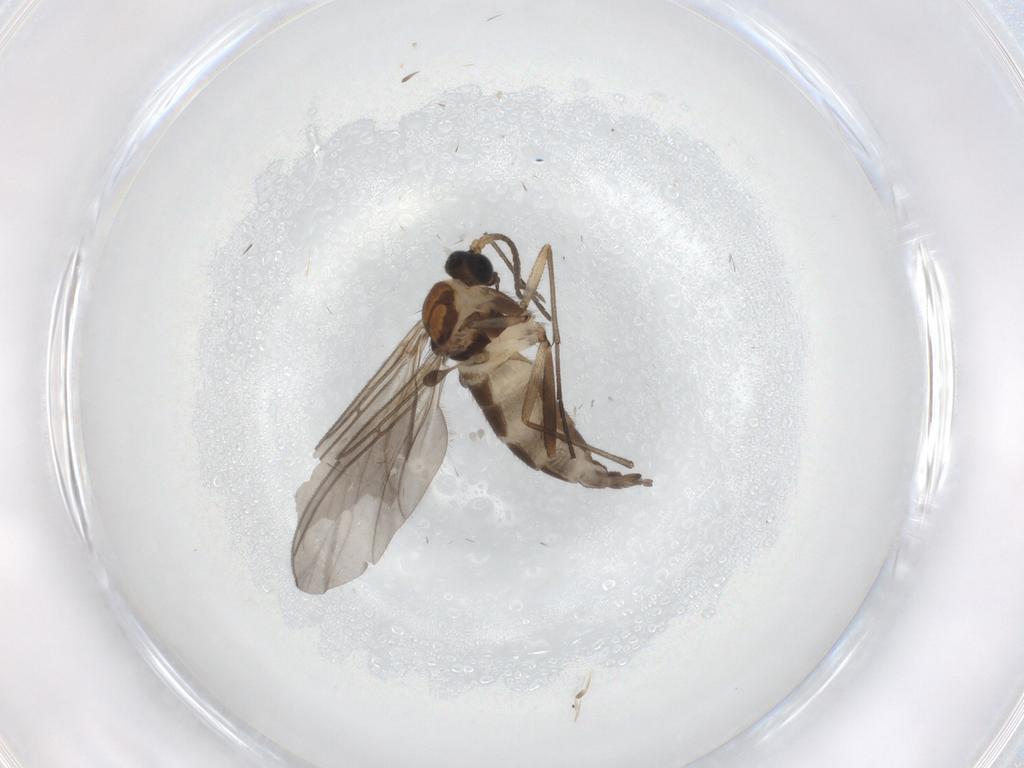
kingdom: Animalia
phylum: Arthropoda
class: Insecta
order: Diptera
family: Sciaridae
